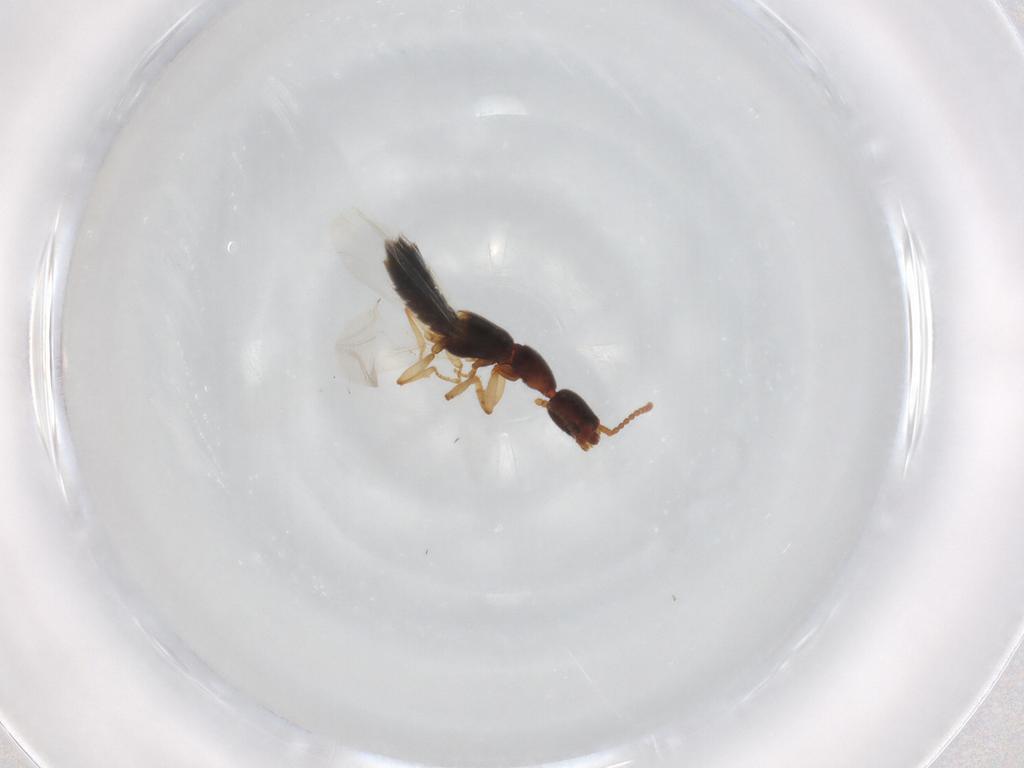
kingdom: Animalia
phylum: Arthropoda
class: Insecta
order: Coleoptera
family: Staphylinidae
